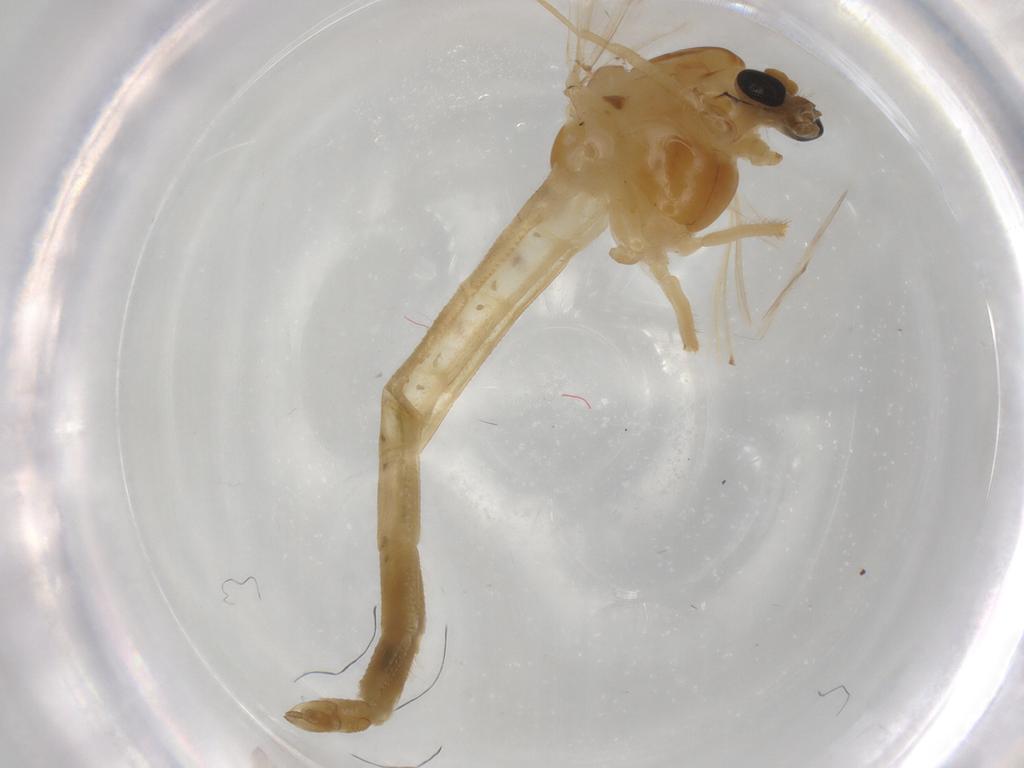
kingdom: Animalia
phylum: Arthropoda
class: Insecta
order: Diptera
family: Chironomidae
